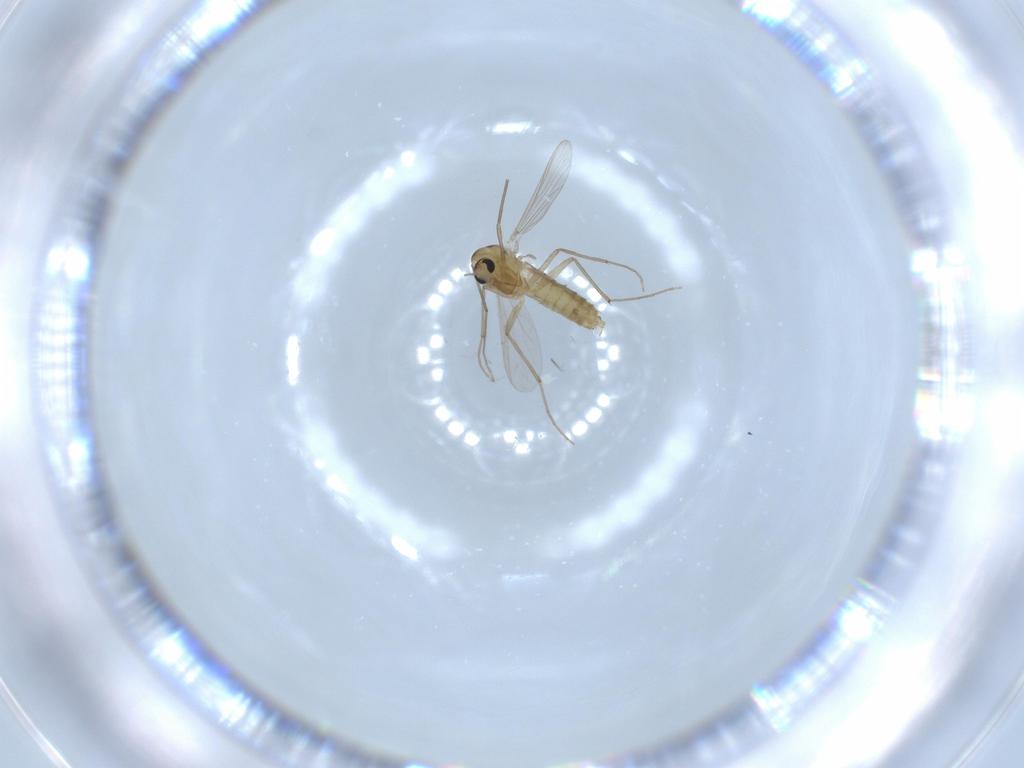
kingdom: Animalia
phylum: Arthropoda
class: Insecta
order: Diptera
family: Chironomidae
